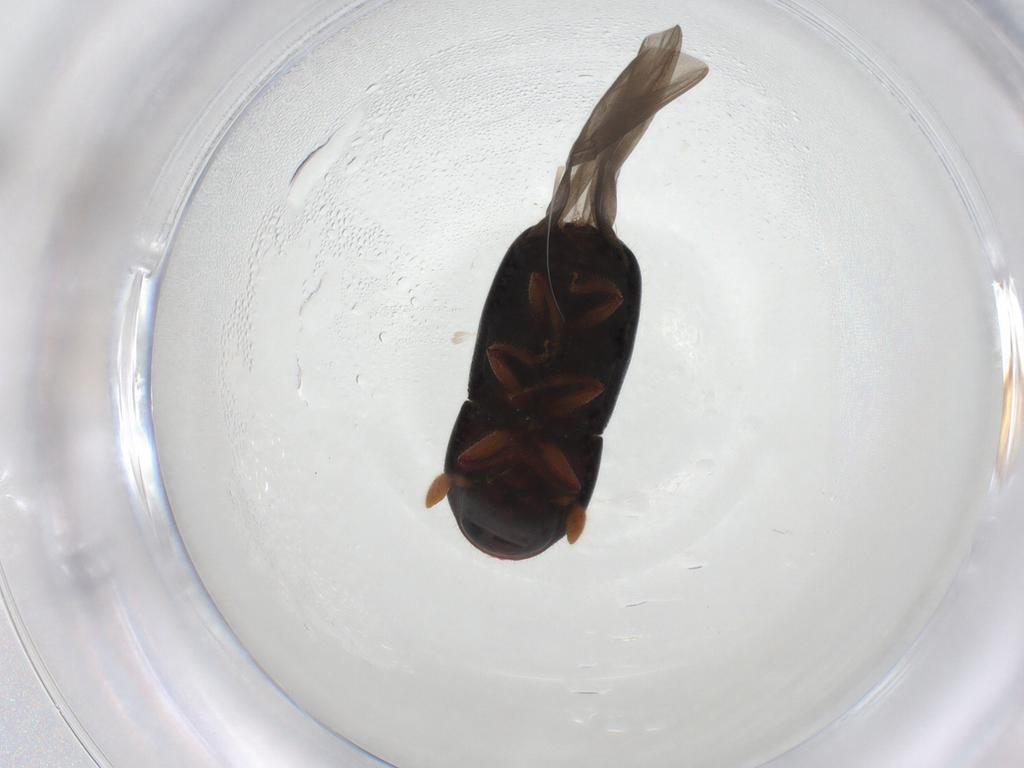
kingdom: Animalia
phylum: Arthropoda
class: Insecta
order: Coleoptera
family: Curculionidae
